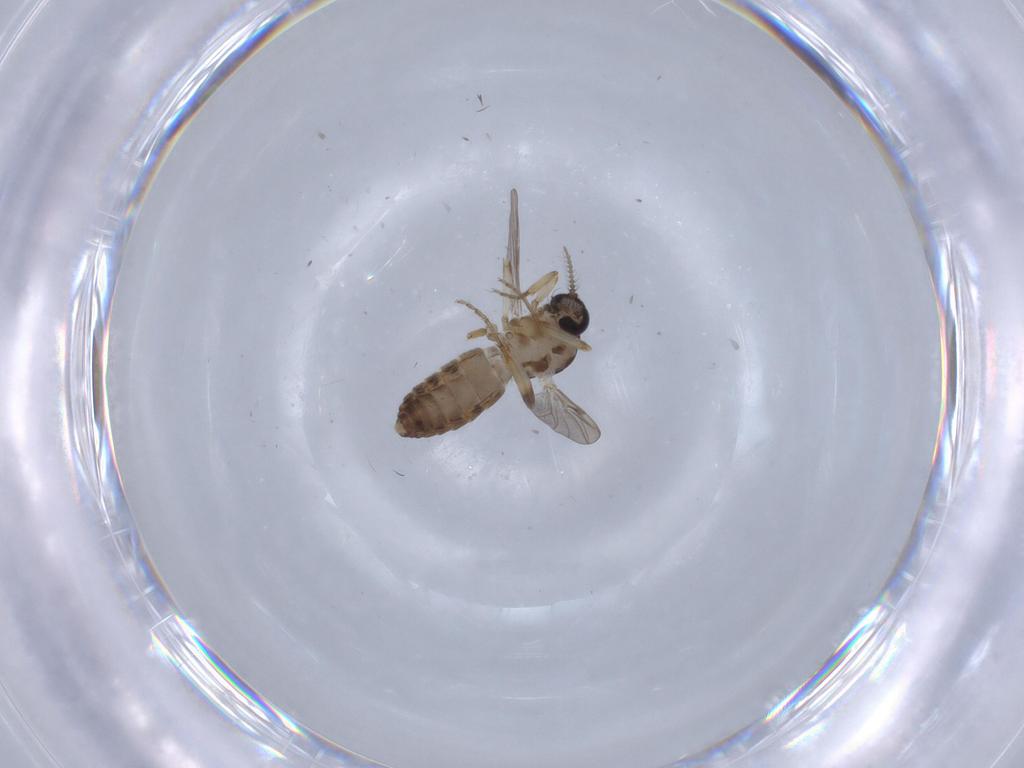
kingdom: Animalia
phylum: Arthropoda
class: Insecta
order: Diptera
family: Ceratopogonidae
